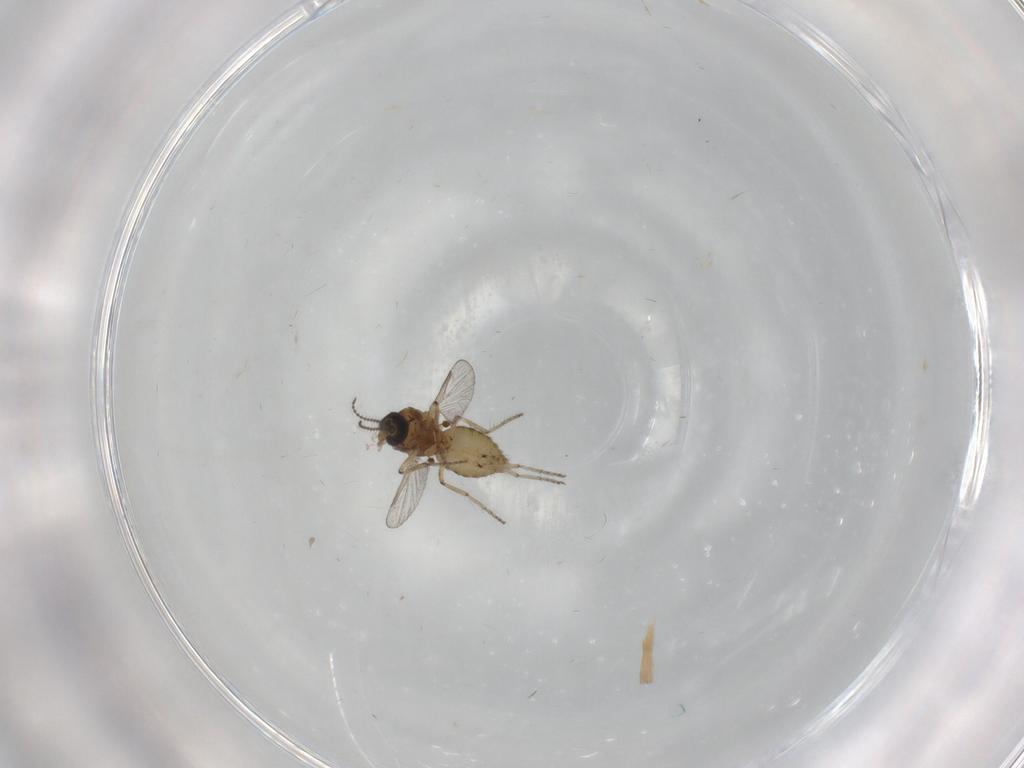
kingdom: Animalia
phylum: Arthropoda
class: Insecta
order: Diptera
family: Ceratopogonidae
